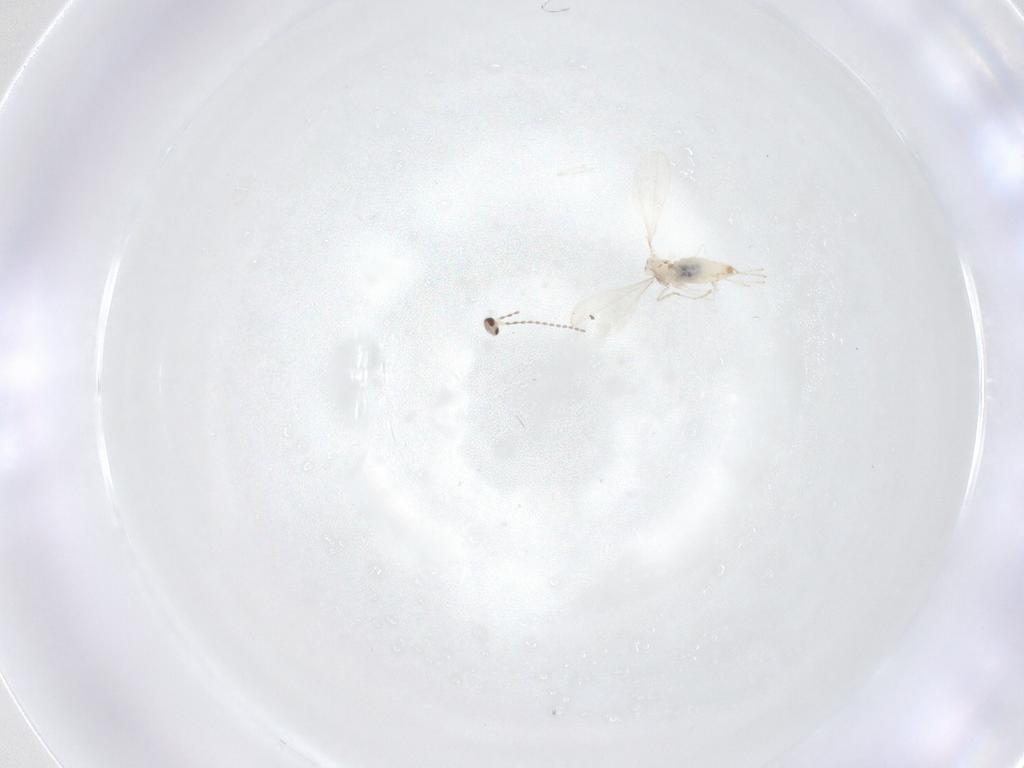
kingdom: Animalia
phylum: Arthropoda
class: Insecta
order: Diptera
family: Cecidomyiidae
